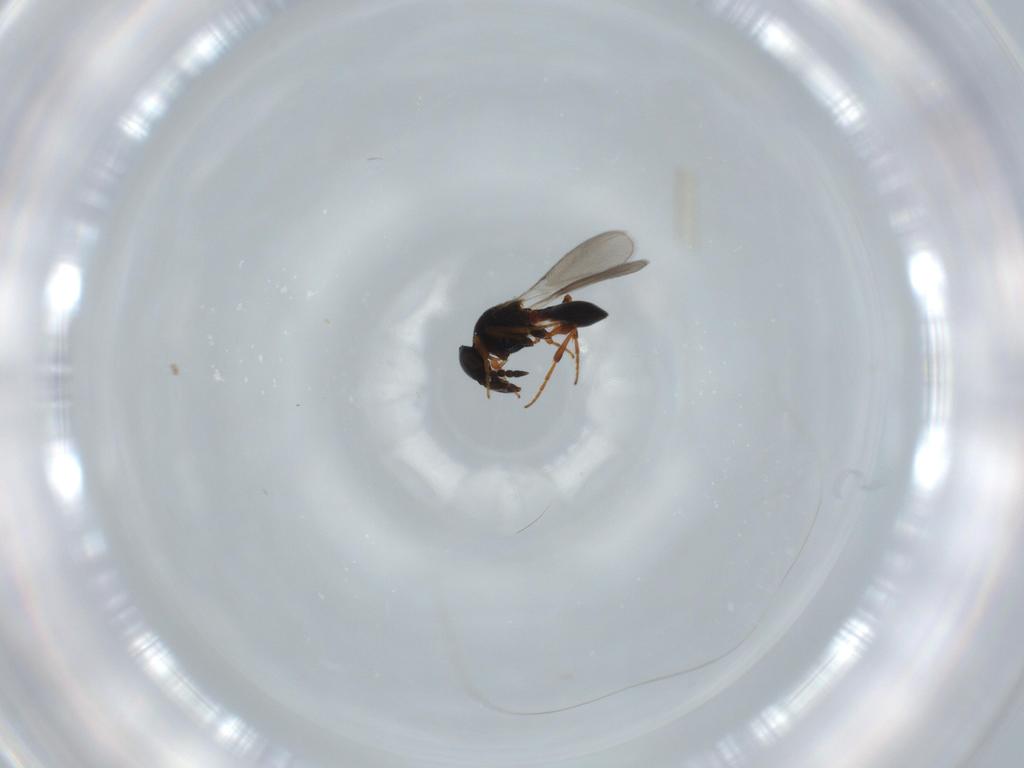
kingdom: Animalia
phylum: Arthropoda
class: Insecta
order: Hymenoptera
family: Platygastridae
